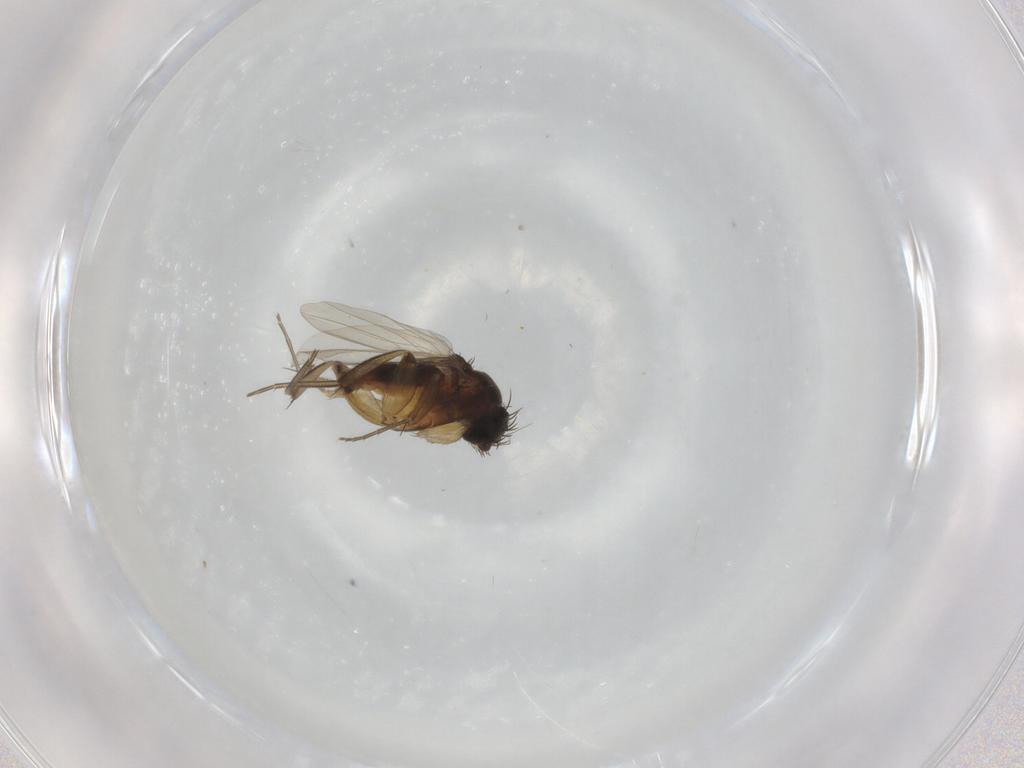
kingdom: Animalia
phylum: Arthropoda
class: Insecta
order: Diptera
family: Phoridae
